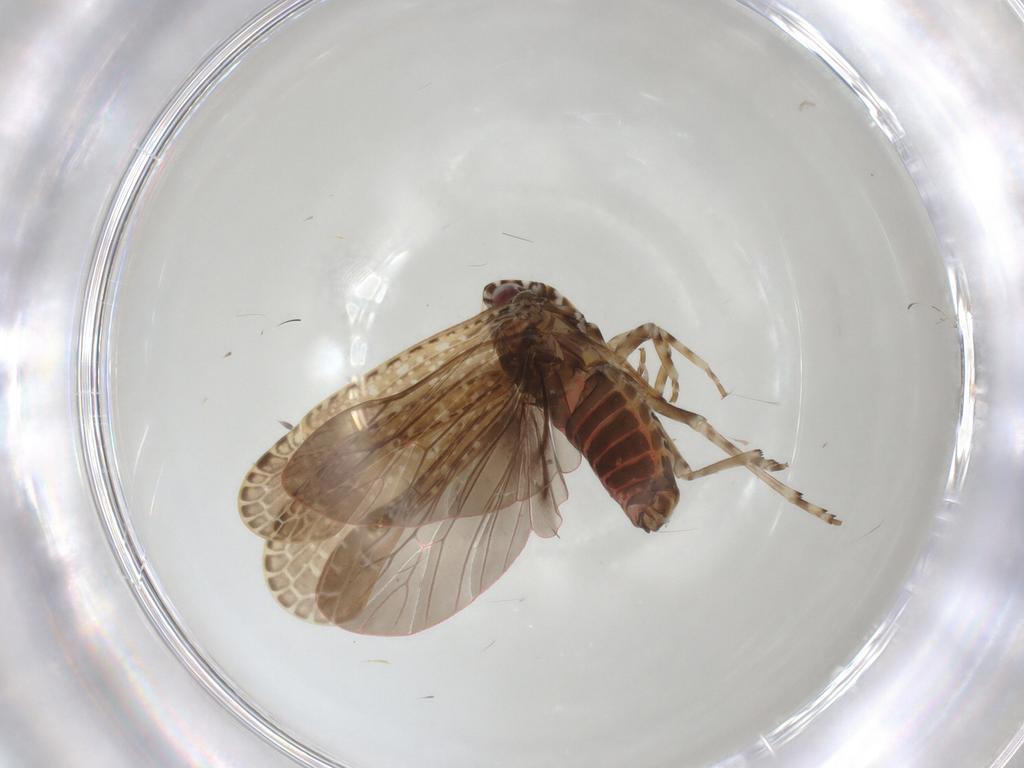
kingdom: Animalia
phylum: Arthropoda
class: Insecta
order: Hemiptera
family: Achilidae
